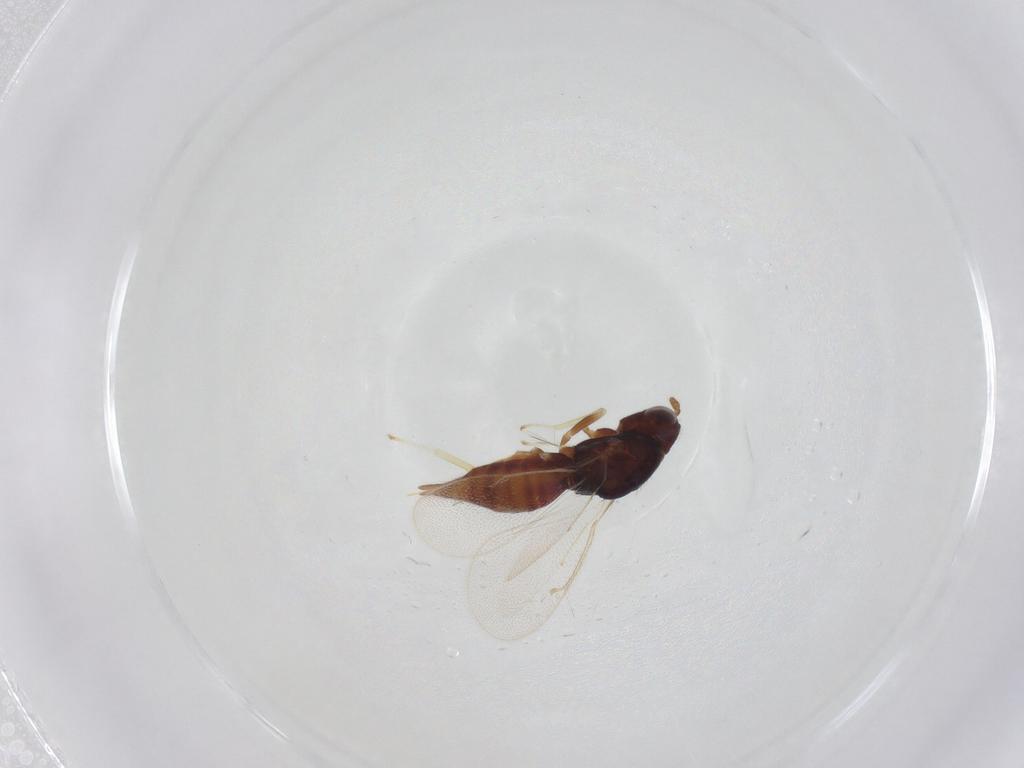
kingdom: Animalia
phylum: Arthropoda
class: Insecta
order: Hymenoptera
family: Eulophidae
